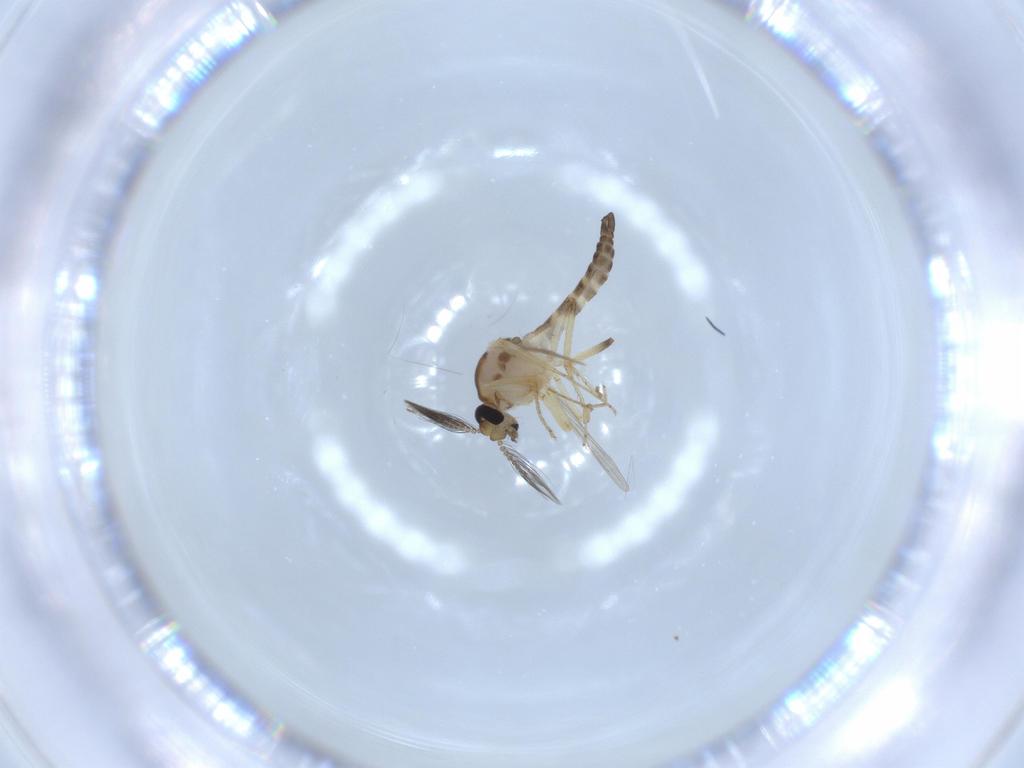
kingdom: Animalia
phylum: Arthropoda
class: Insecta
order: Diptera
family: Ceratopogonidae
